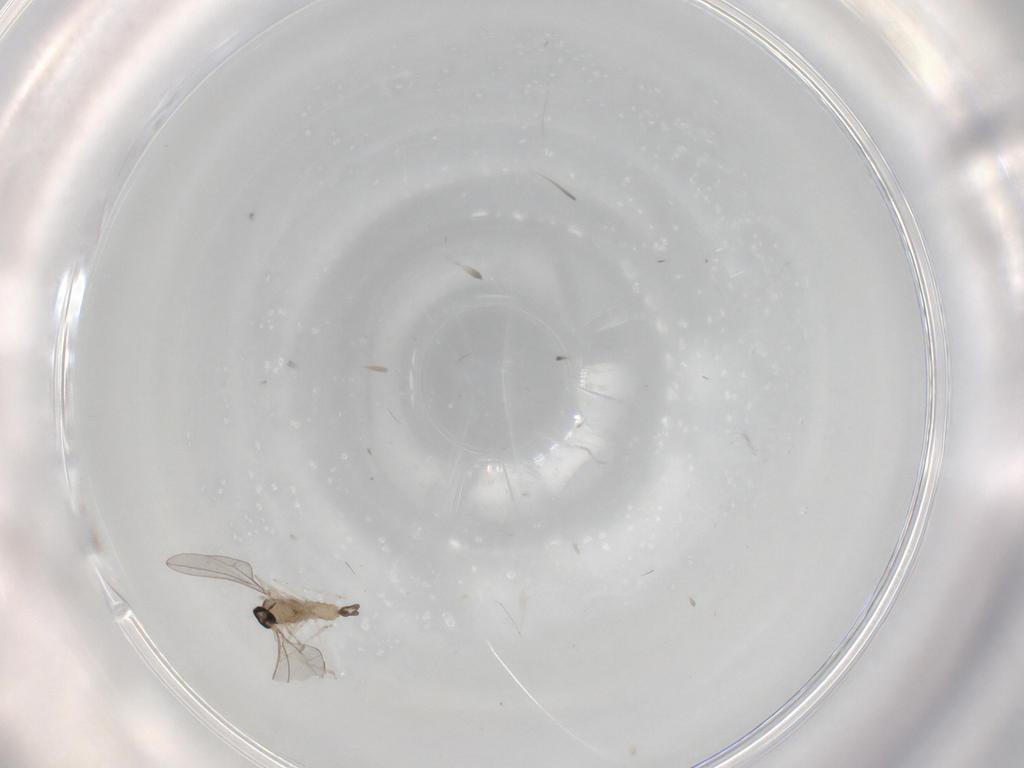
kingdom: Animalia
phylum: Arthropoda
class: Insecta
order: Diptera
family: Cecidomyiidae
